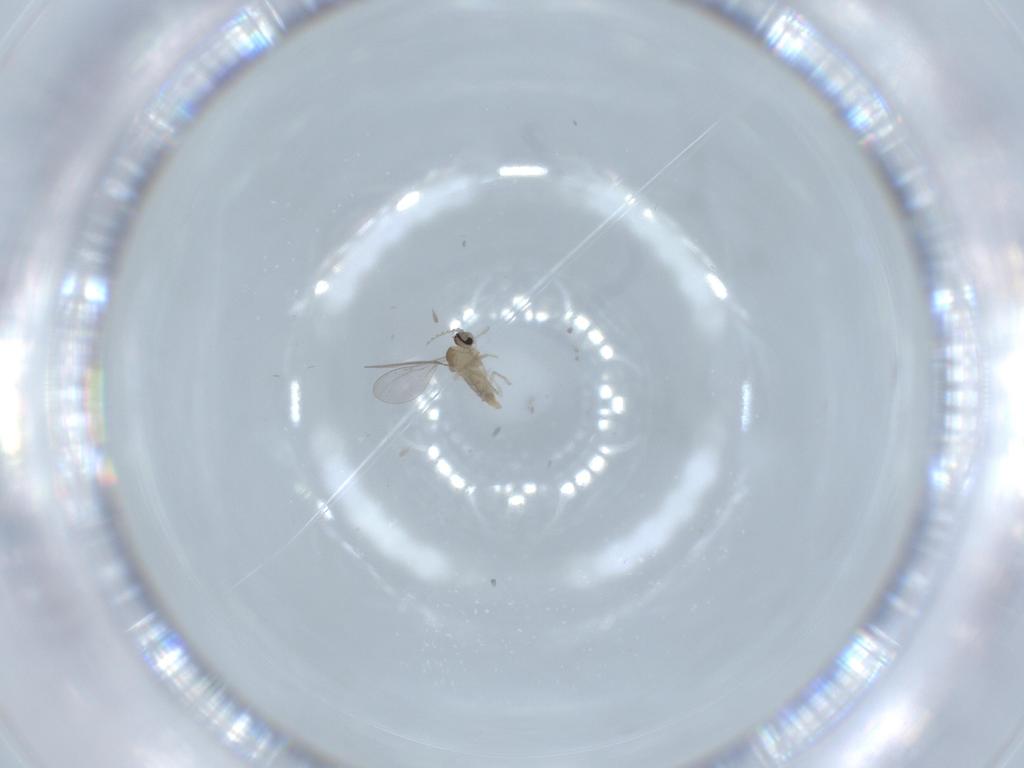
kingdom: Animalia
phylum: Arthropoda
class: Insecta
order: Diptera
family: Cecidomyiidae
